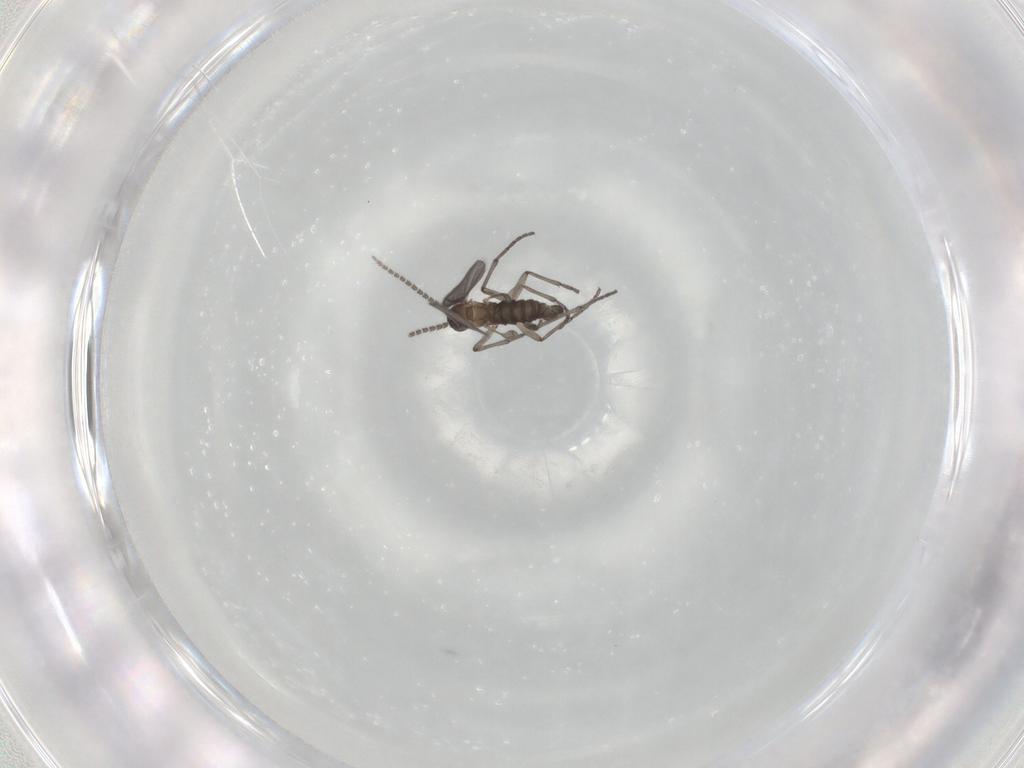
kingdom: Animalia
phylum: Arthropoda
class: Insecta
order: Diptera
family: Sciaridae
